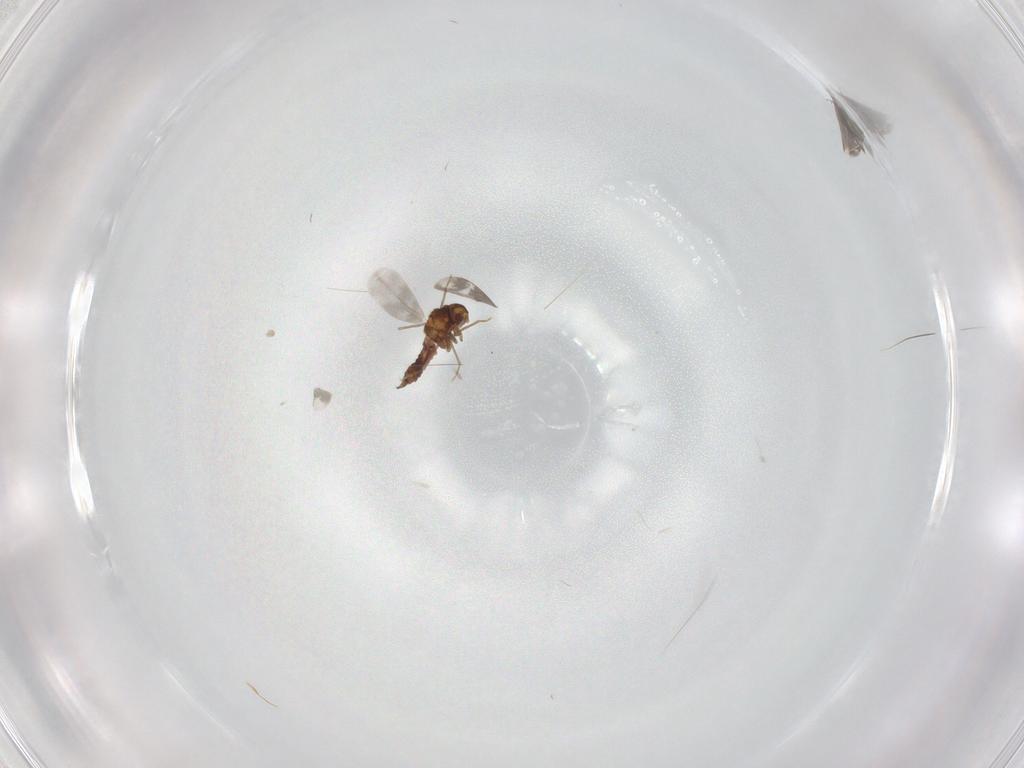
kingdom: Animalia
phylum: Arthropoda
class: Insecta
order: Hemiptera
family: Aleyrodidae
